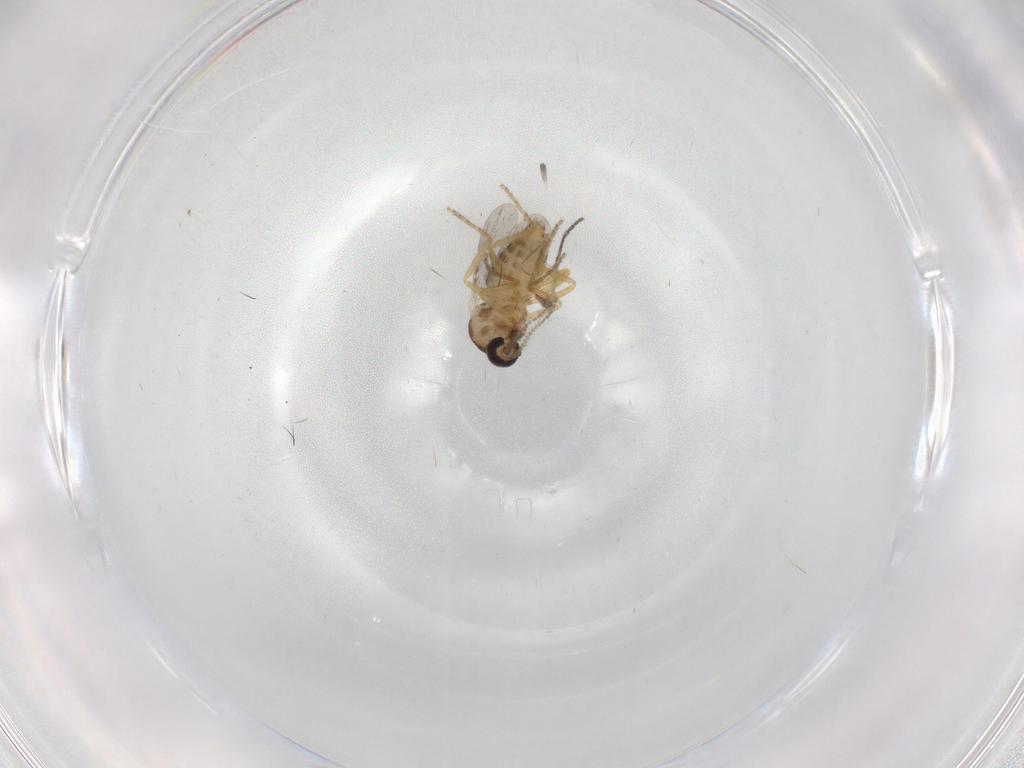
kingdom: Animalia
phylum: Arthropoda
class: Insecta
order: Diptera
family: Ceratopogonidae
